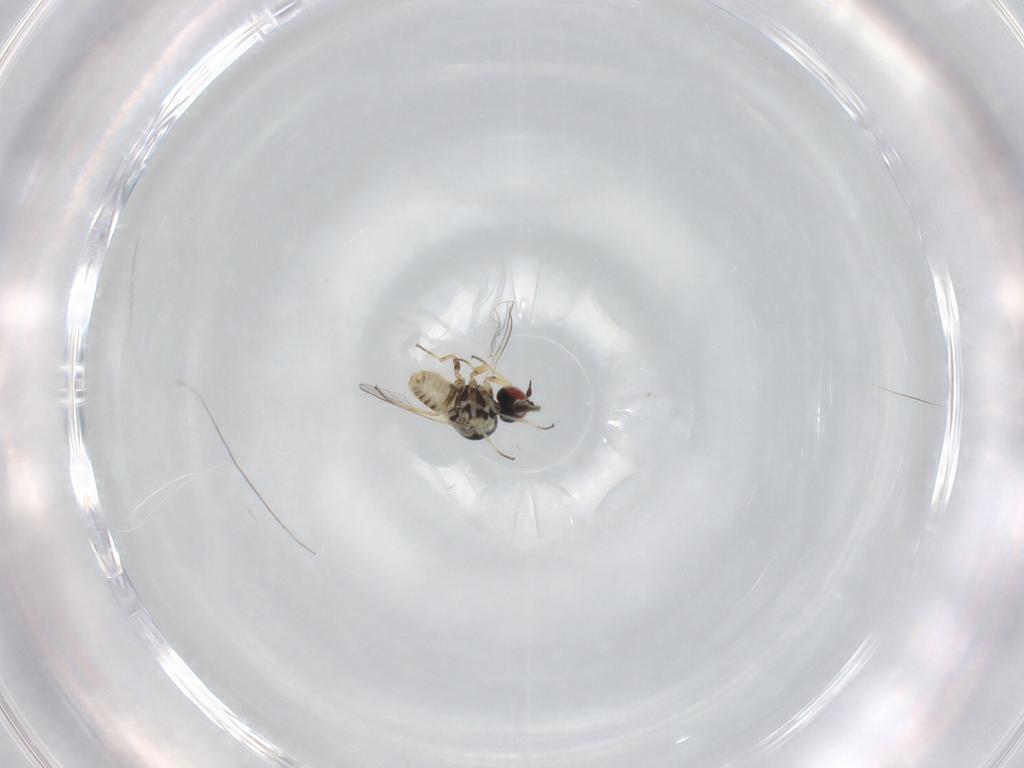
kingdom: Animalia
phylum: Arthropoda
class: Insecta
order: Diptera
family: Bombyliidae
